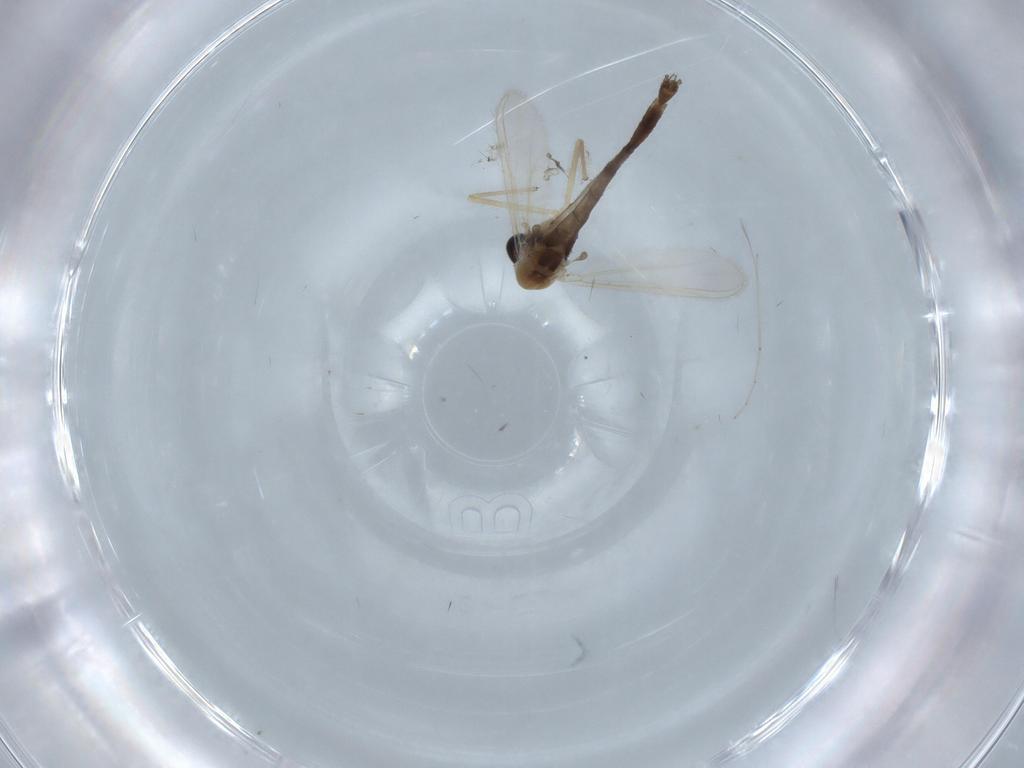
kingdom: Animalia
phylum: Arthropoda
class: Insecta
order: Diptera
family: Chironomidae
